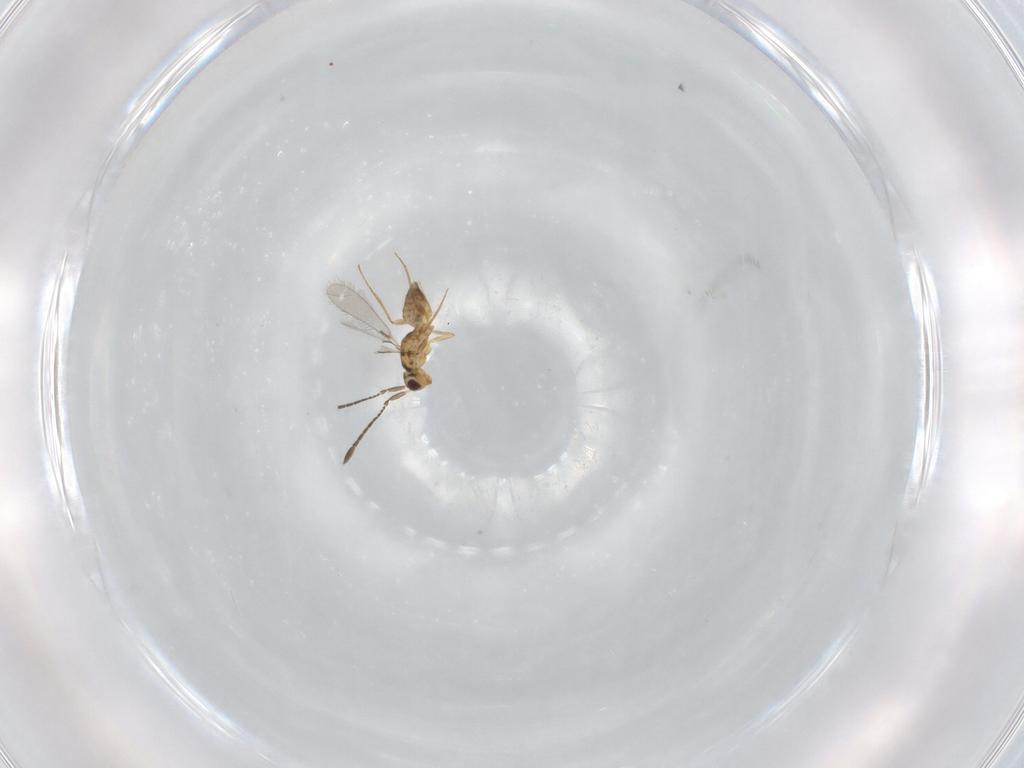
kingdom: Animalia
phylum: Arthropoda
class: Insecta
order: Hymenoptera
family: Mymaridae
